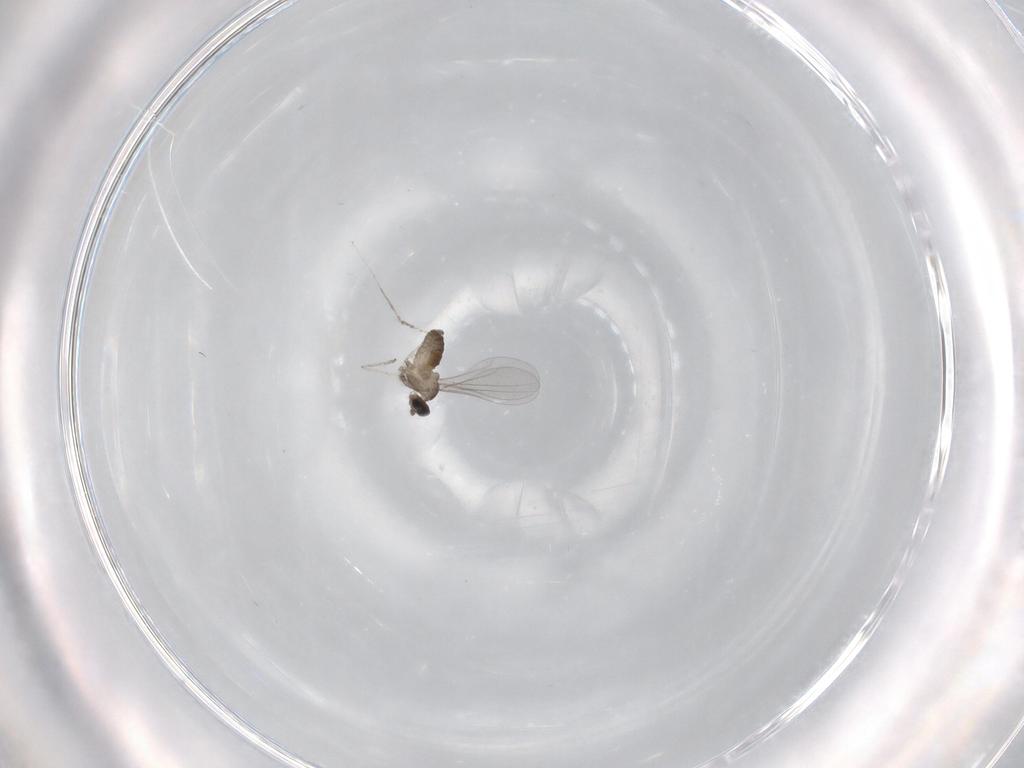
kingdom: Animalia
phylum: Arthropoda
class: Insecta
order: Diptera
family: Cecidomyiidae
